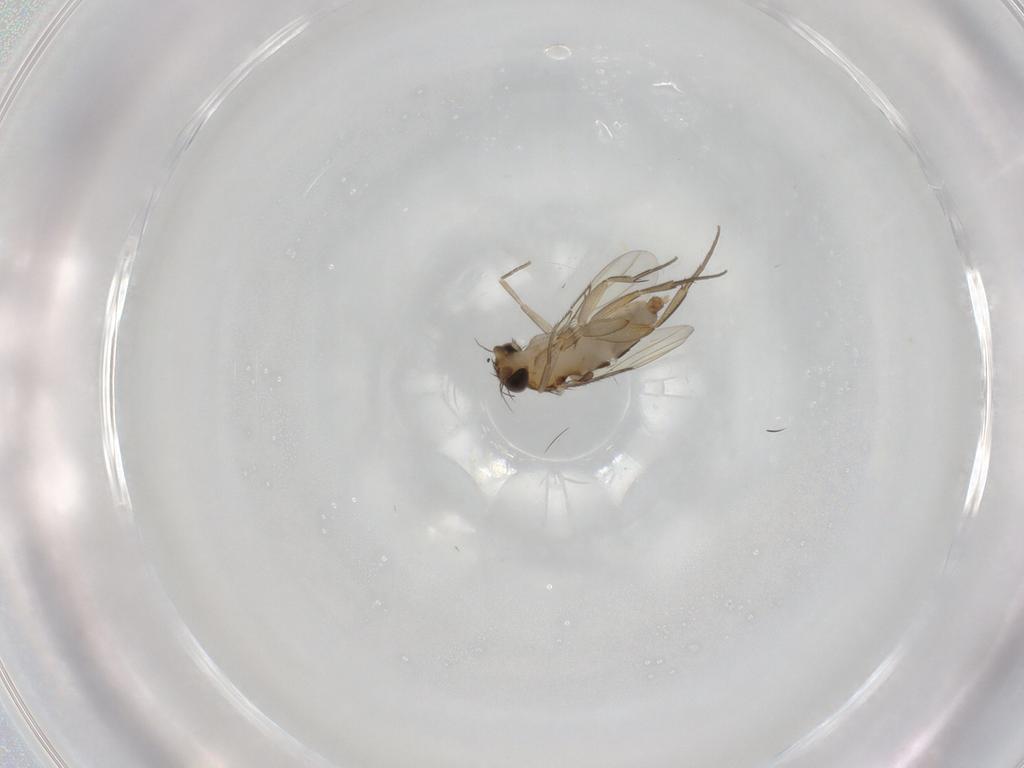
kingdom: Animalia
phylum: Arthropoda
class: Insecta
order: Diptera
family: Phoridae
